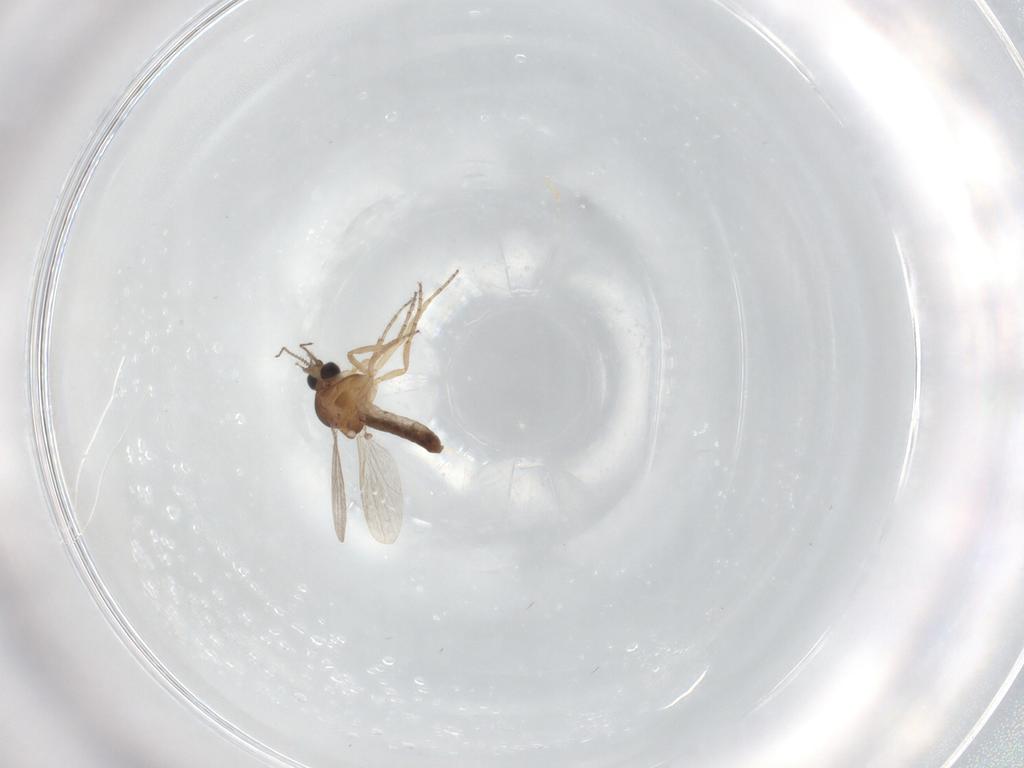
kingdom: Animalia
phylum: Arthropoda
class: Insecta
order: Diptera
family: Ceratopogonidae
